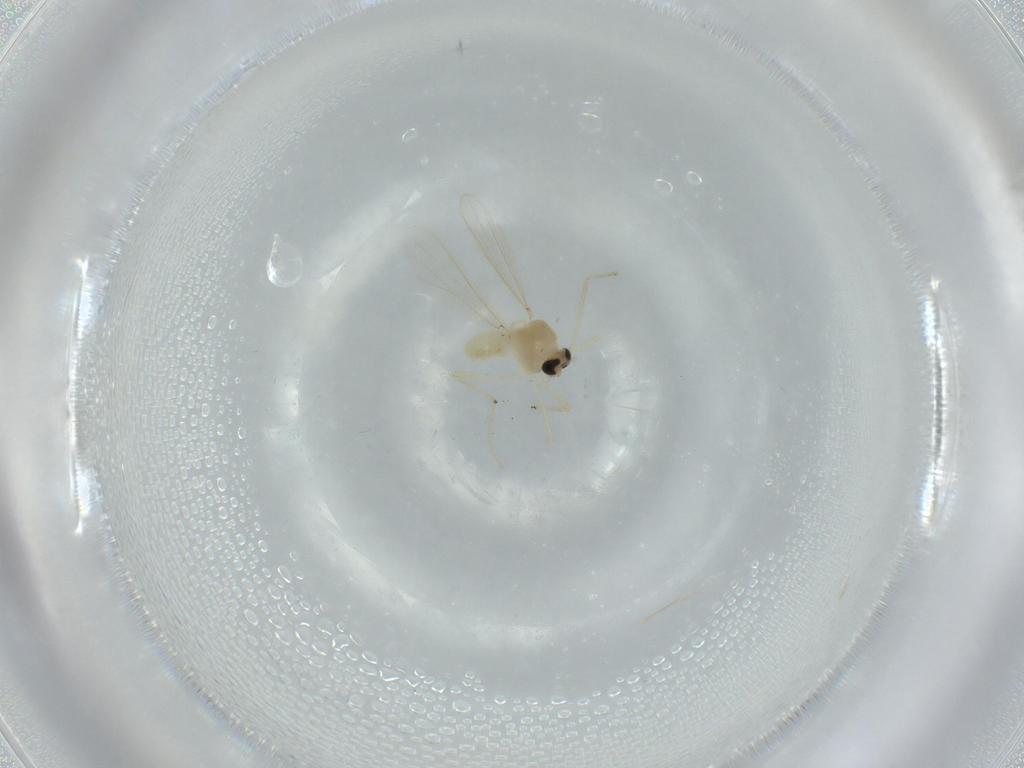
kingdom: Animalia
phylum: Arthropoda
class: Insecta
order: Diptera
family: Chironomidae
